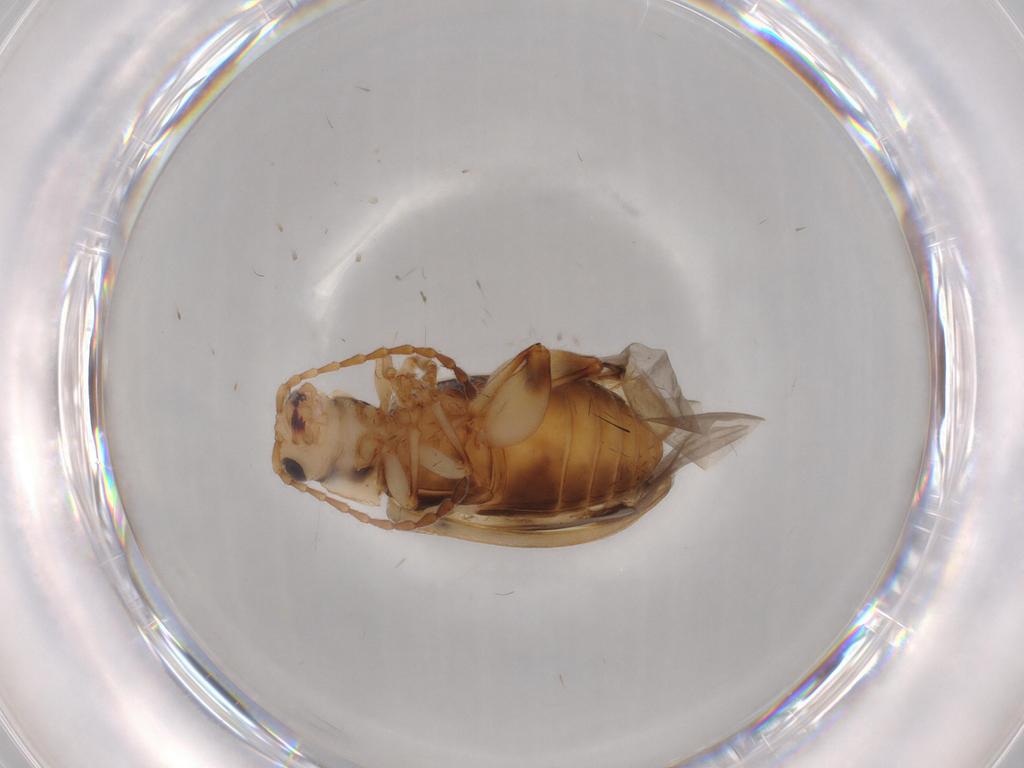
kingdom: Animalia
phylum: Arthropoda
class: Insecta
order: Coleoptera
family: Chrysomelidae
